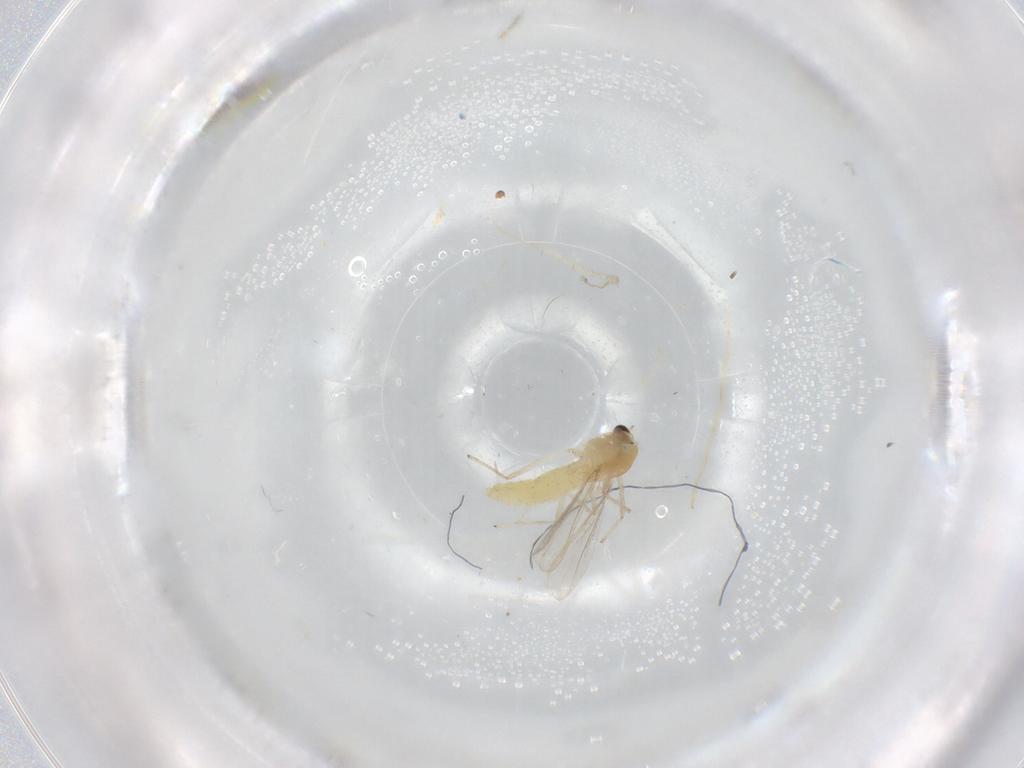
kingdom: Animalia
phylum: Arthropoda
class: Insecta
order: Diptera
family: Chironomidae
